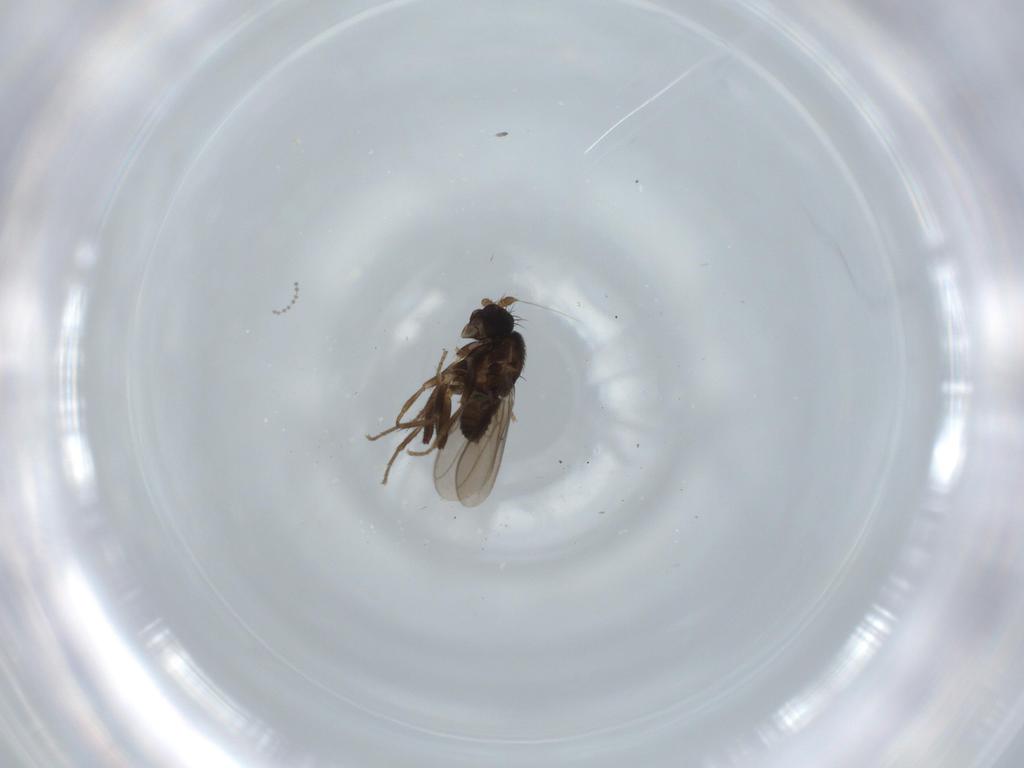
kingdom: Animalia
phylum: Arthropoda
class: Insecta
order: Diptera
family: Cecidomyiidae
